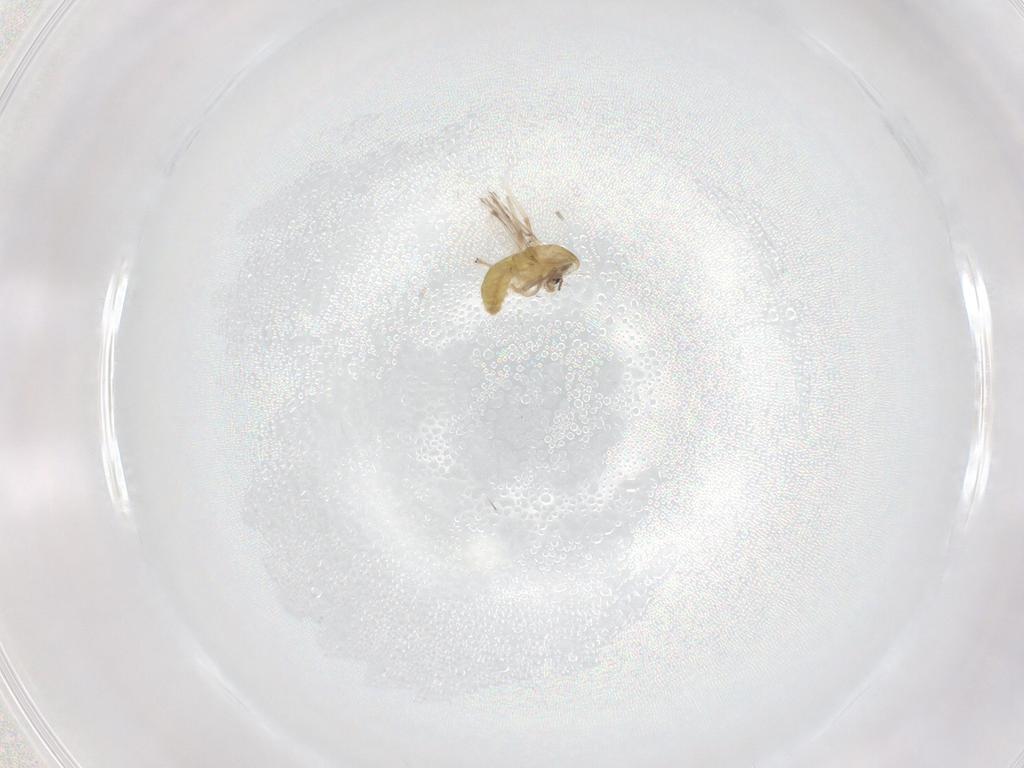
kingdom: Animalia
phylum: Arthropoda
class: Insecta
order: Diptera
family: Chironomidae
